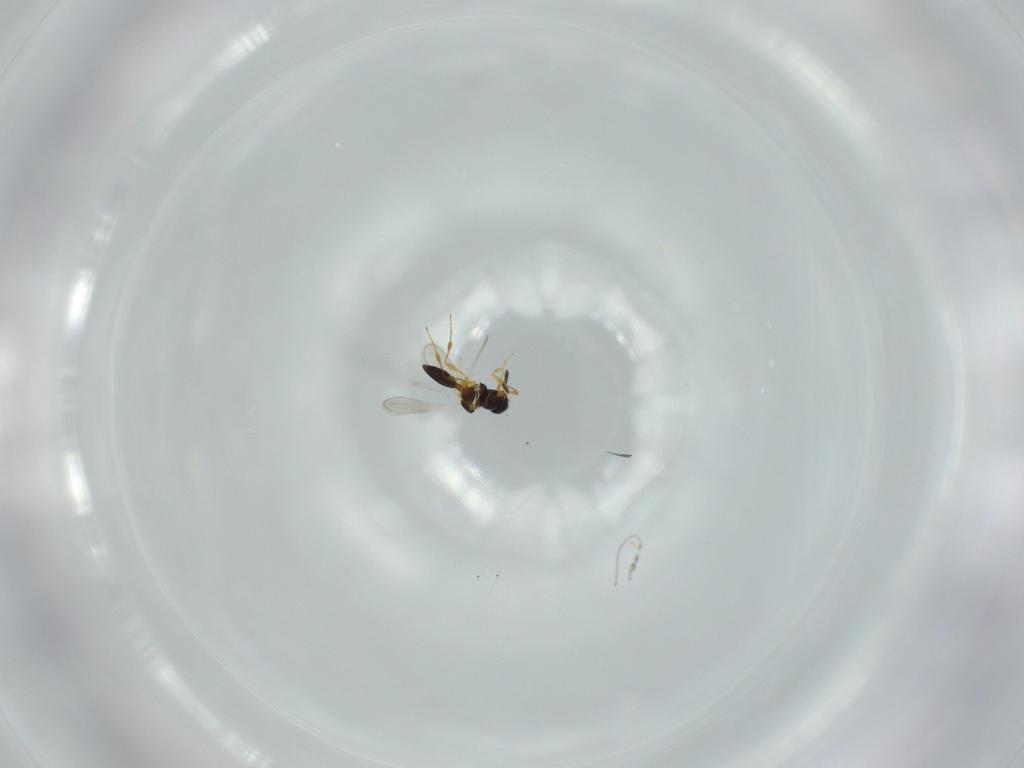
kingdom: Animalia
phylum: Arthropoda
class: Insecta
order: Hymenoptera
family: Platygastridae
